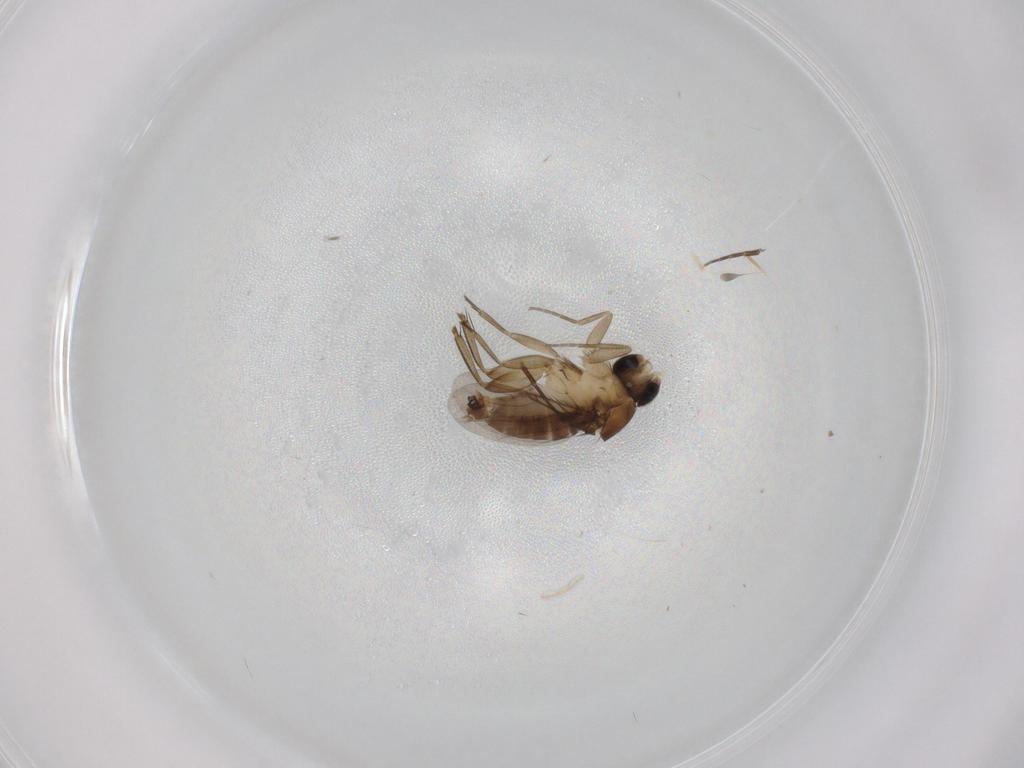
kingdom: Animalia
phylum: Arthropoda
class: Insecta
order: Diptera
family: Phoridae
